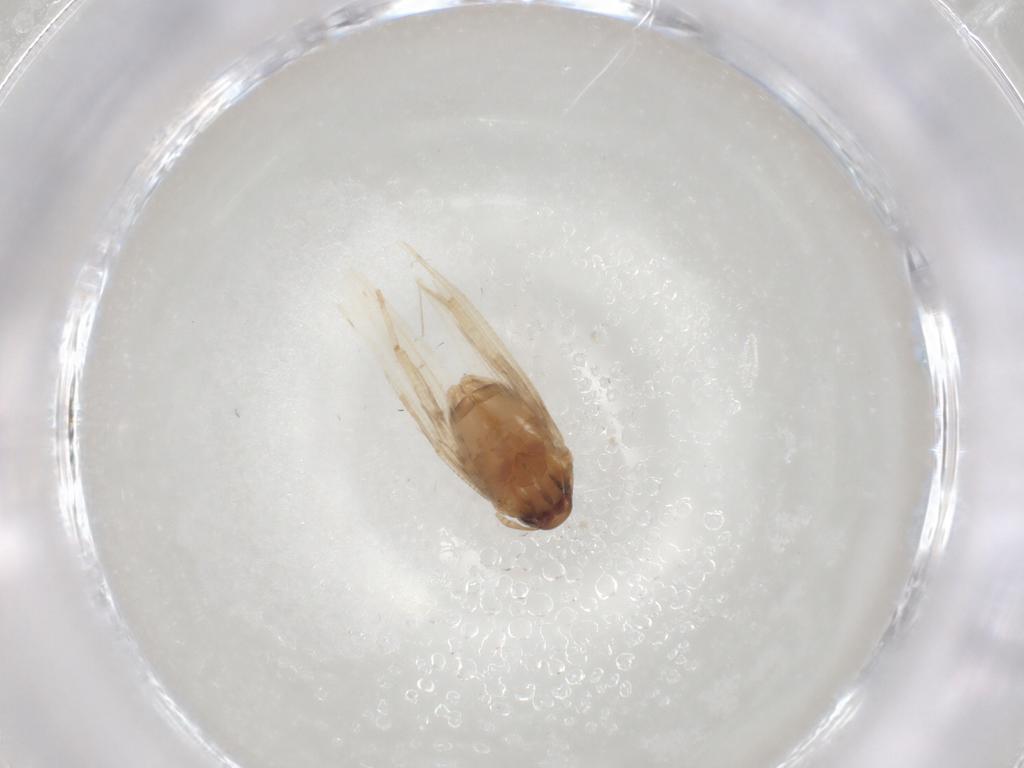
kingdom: Animalia
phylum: Arthropoda
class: Insecta
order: Lepidoptera
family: Cosmopterigidae
